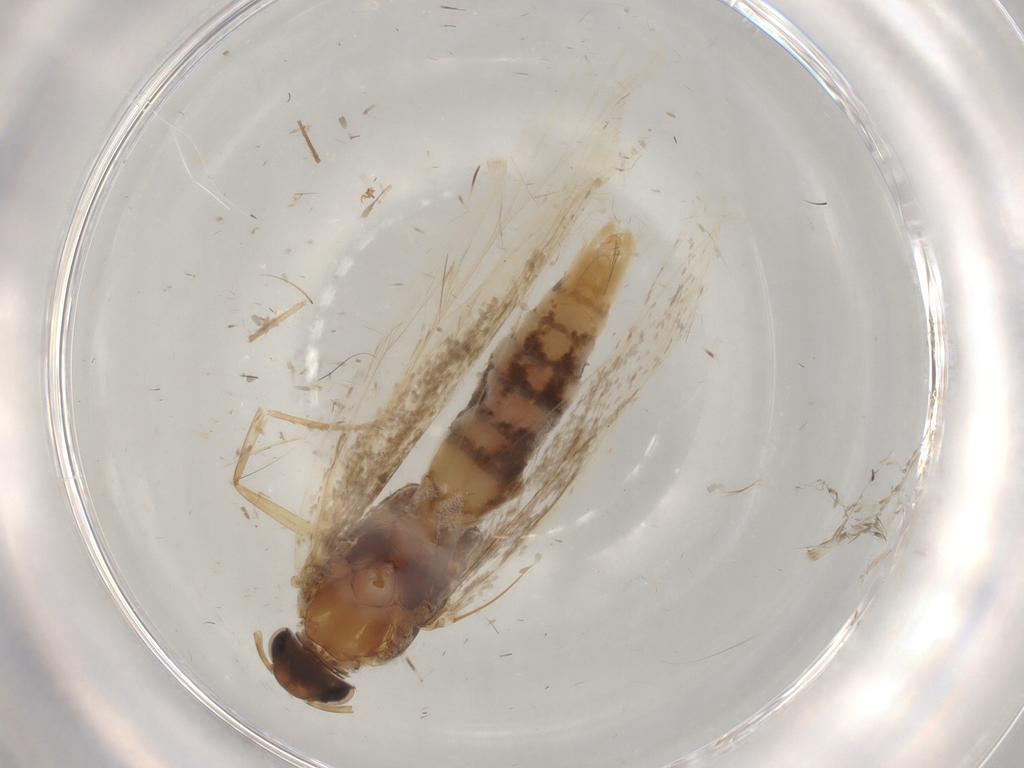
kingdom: Animalia
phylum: Arthropoda
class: Insecta
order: Lepidoptera
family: Gelechiidae
